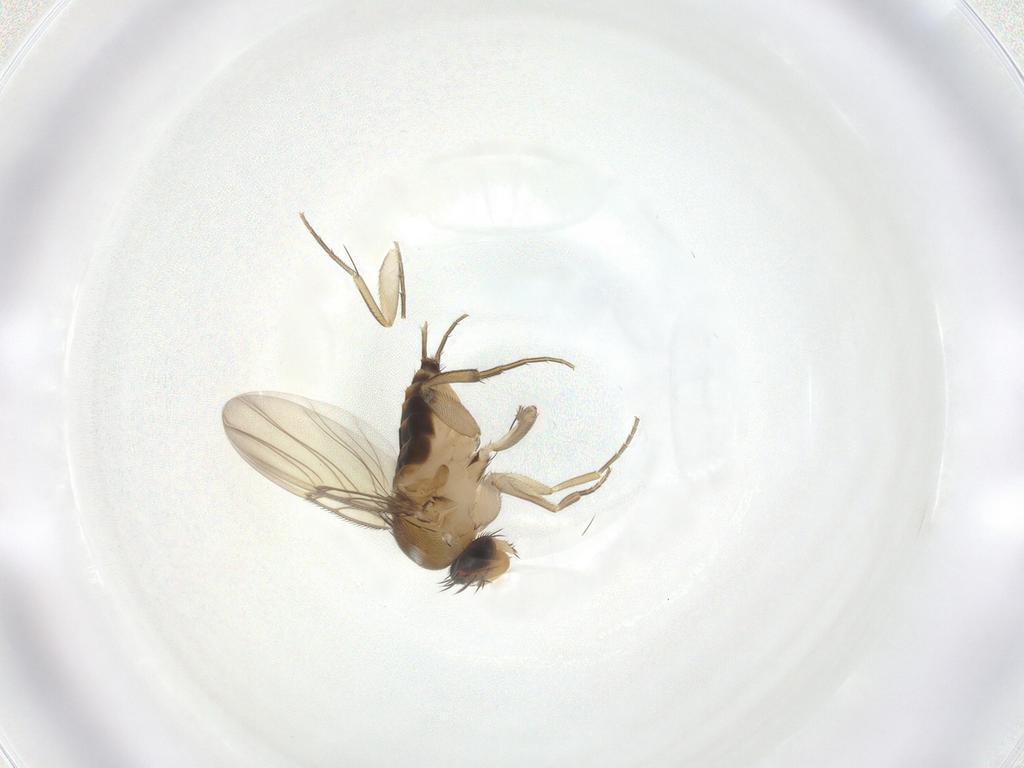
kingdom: Animalia
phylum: Arthropoda
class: Insecta
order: Diptera
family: Phoridae
